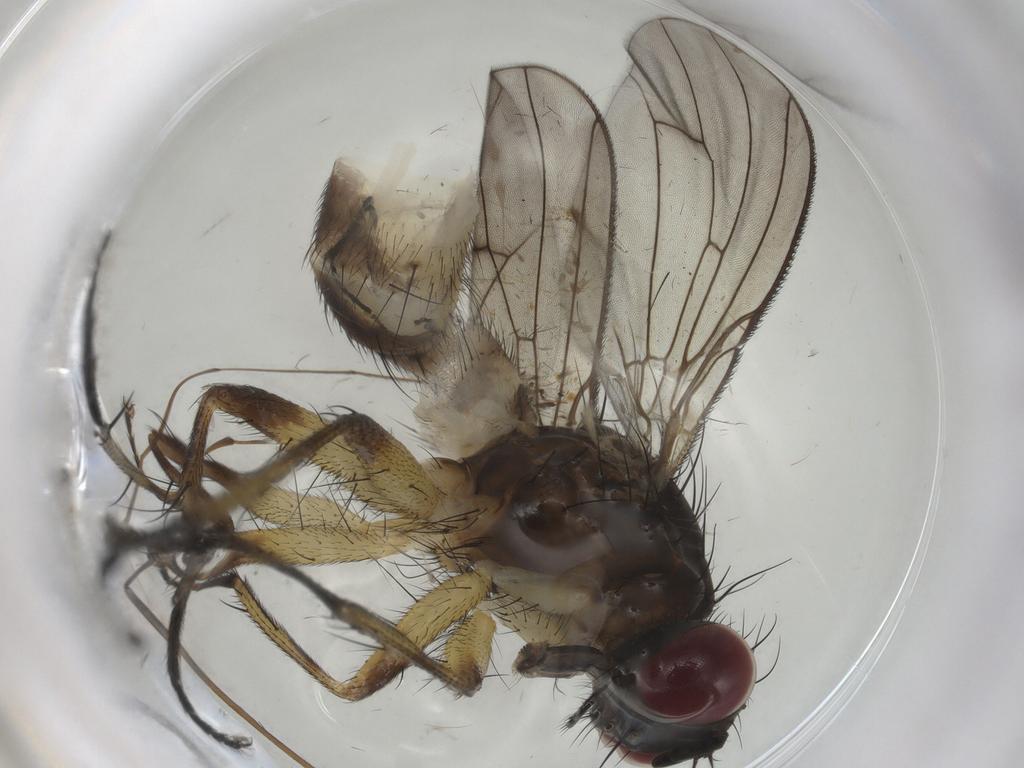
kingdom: Animalia
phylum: Arthropoda
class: Insecta
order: Diptera
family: Muscidae
